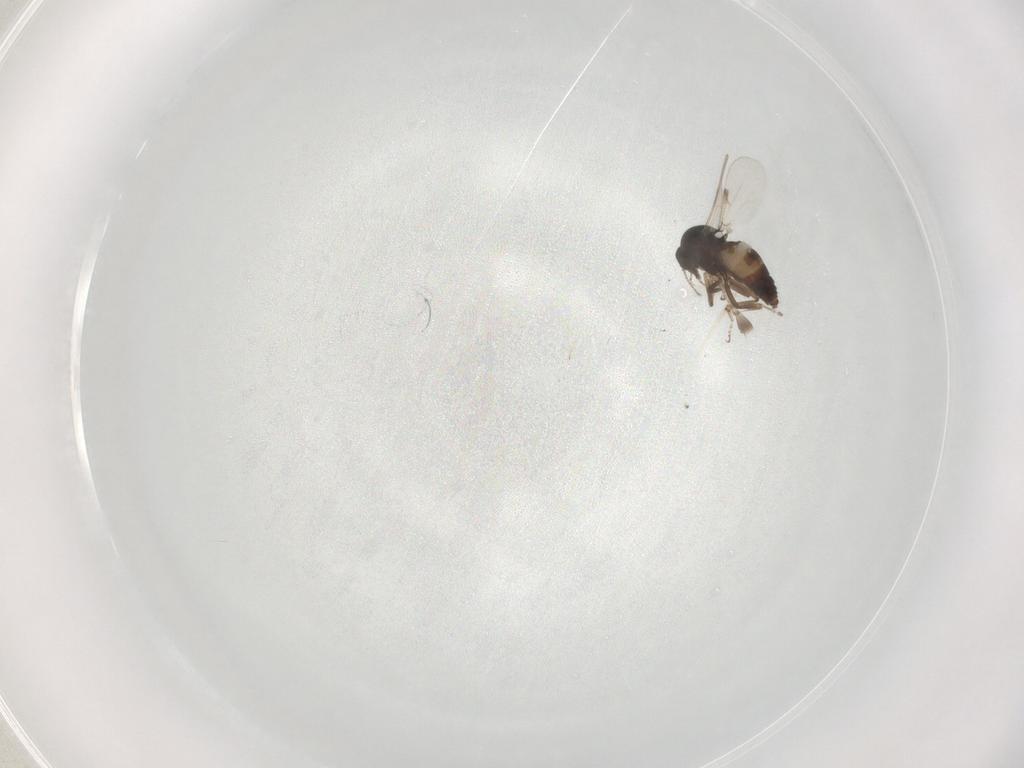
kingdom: Animalia
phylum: Arthropoda
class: Insecta
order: Diptera
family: Ceratopogonidae
